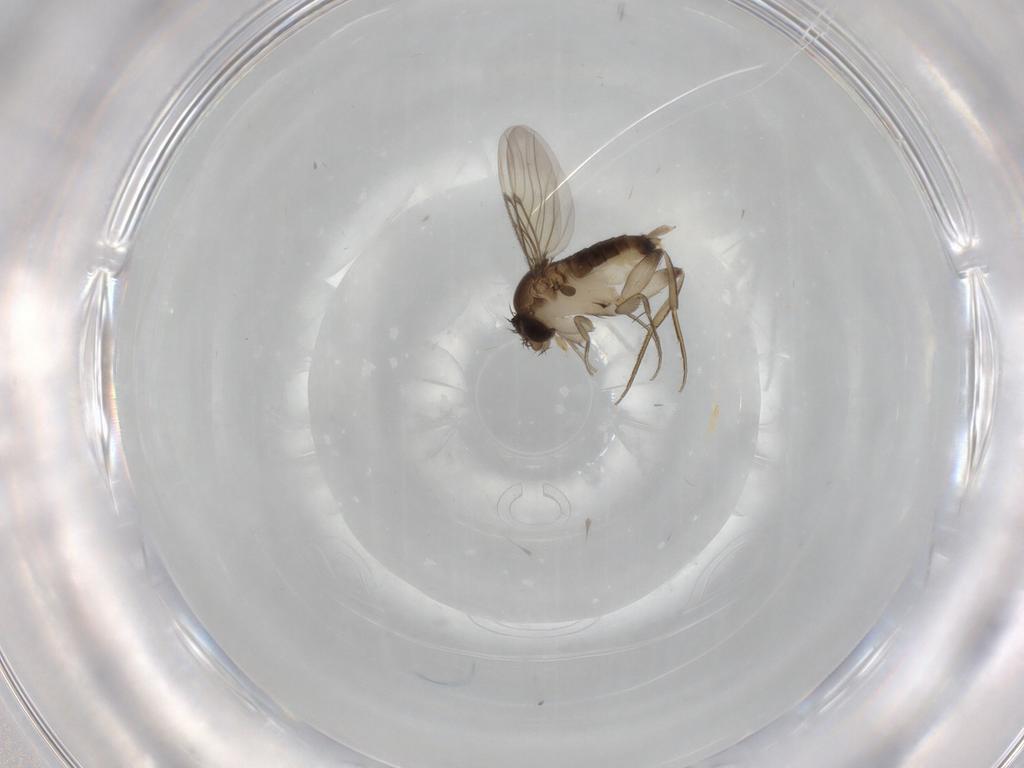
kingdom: Animalia
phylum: Arthropoda
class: Insecta
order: Diptera
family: Phoridae
